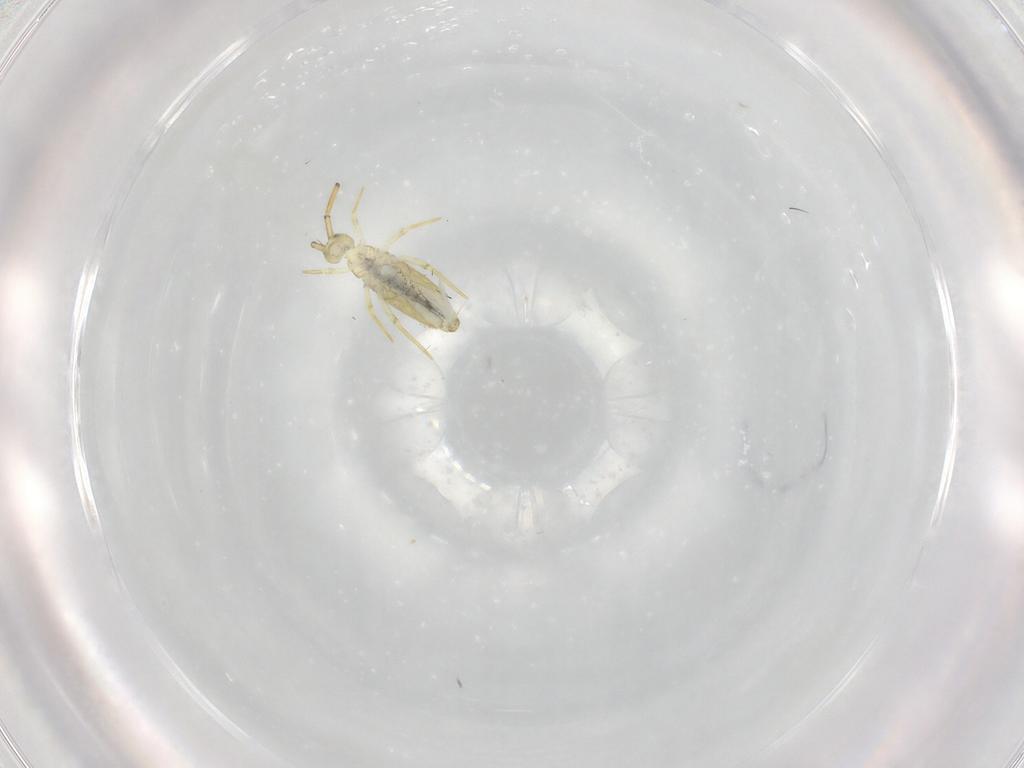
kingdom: Animalia
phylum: Arthropoda
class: Collembola
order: Entomobryomorpha
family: Paronellidae
